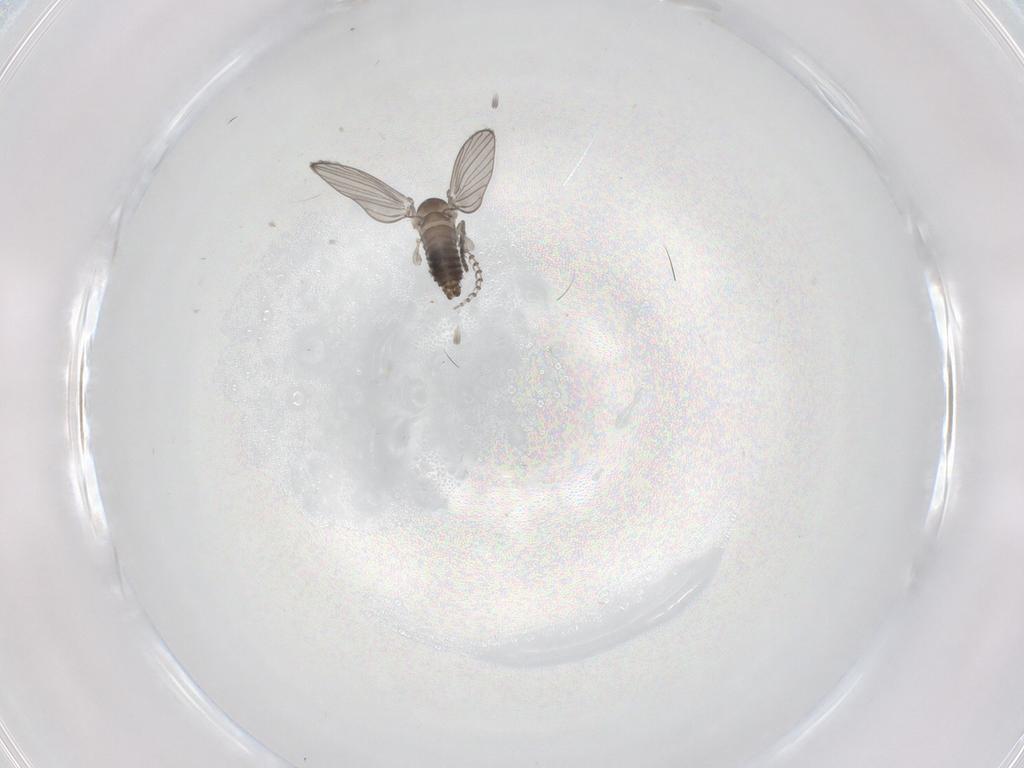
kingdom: Animalia
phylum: Arthropoda
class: Insecta
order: Diptera
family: Psychodidae
